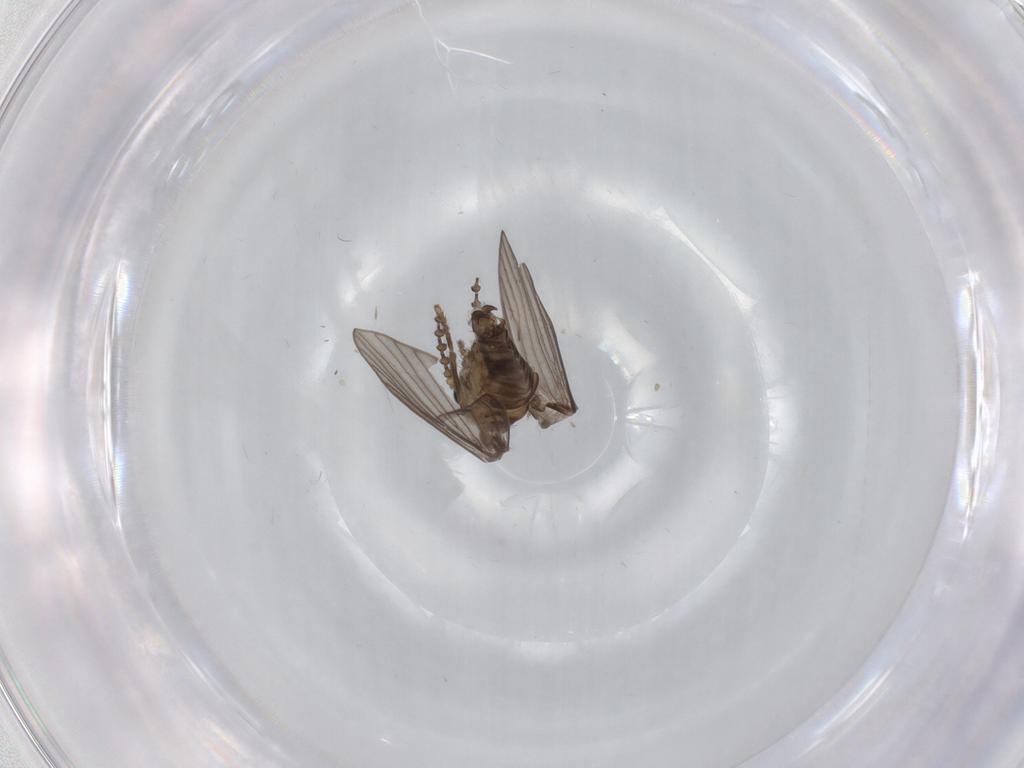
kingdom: Animalia
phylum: Arthropoda
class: Insecta
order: Diptera
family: Psychodidae
